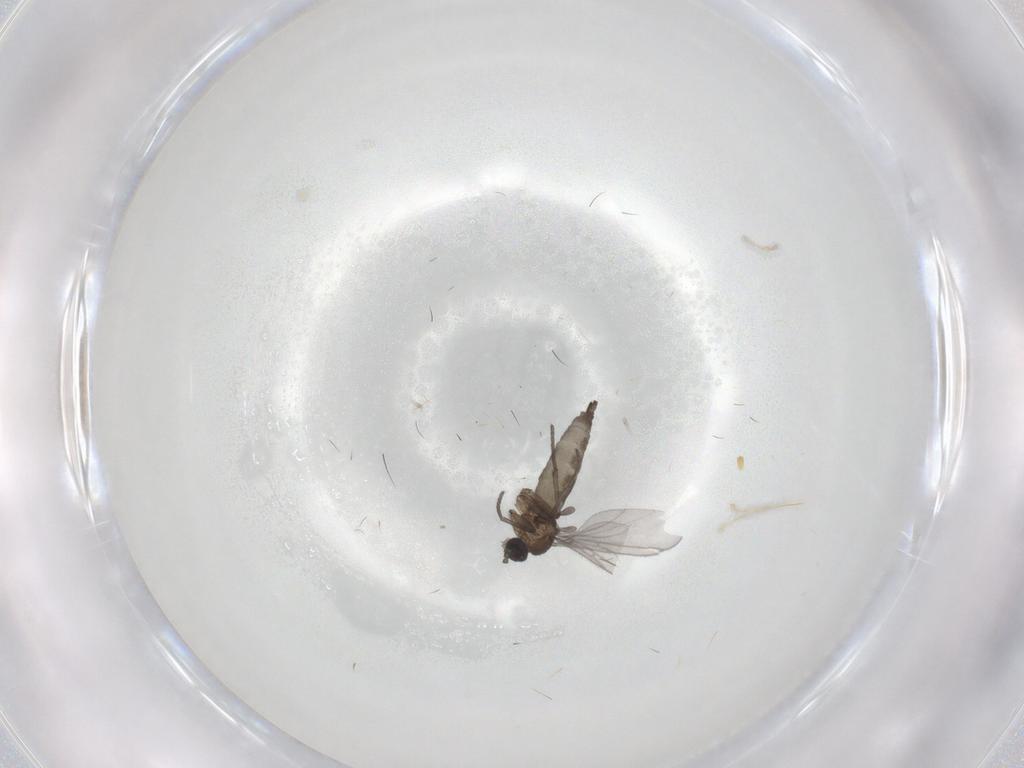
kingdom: Animalia
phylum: Arthropoda
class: Insecta
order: Diptera
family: Sciaridae
